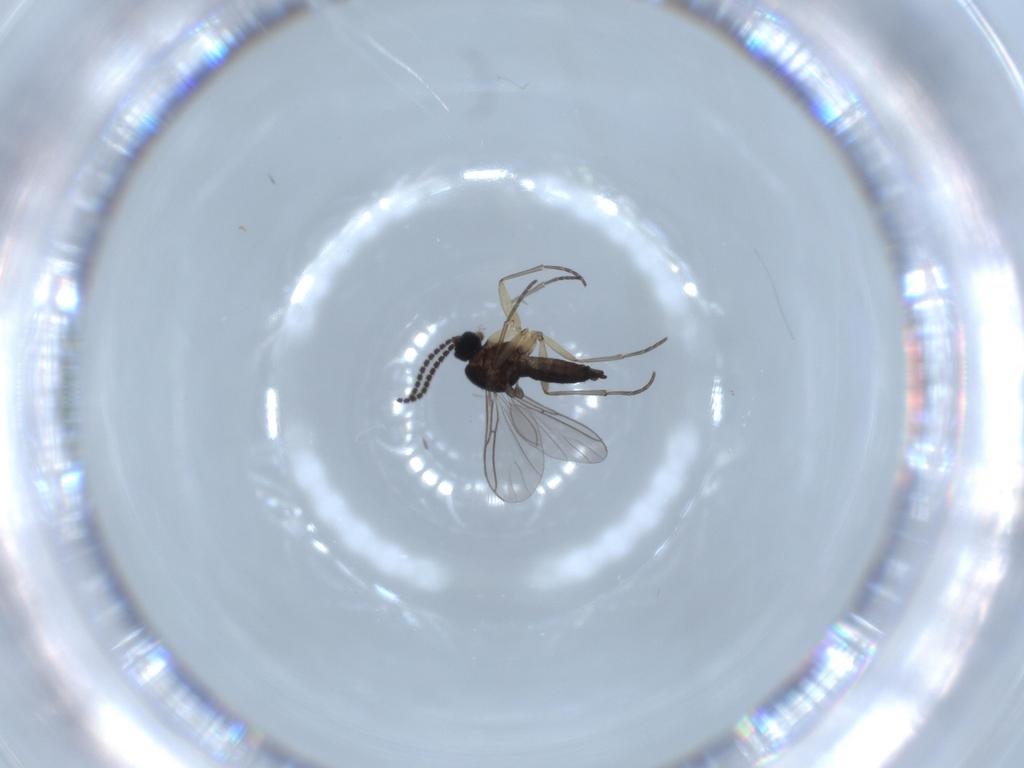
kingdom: Animalia
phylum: Arthropoda
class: Insecta
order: Diptera
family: Sciaridae
